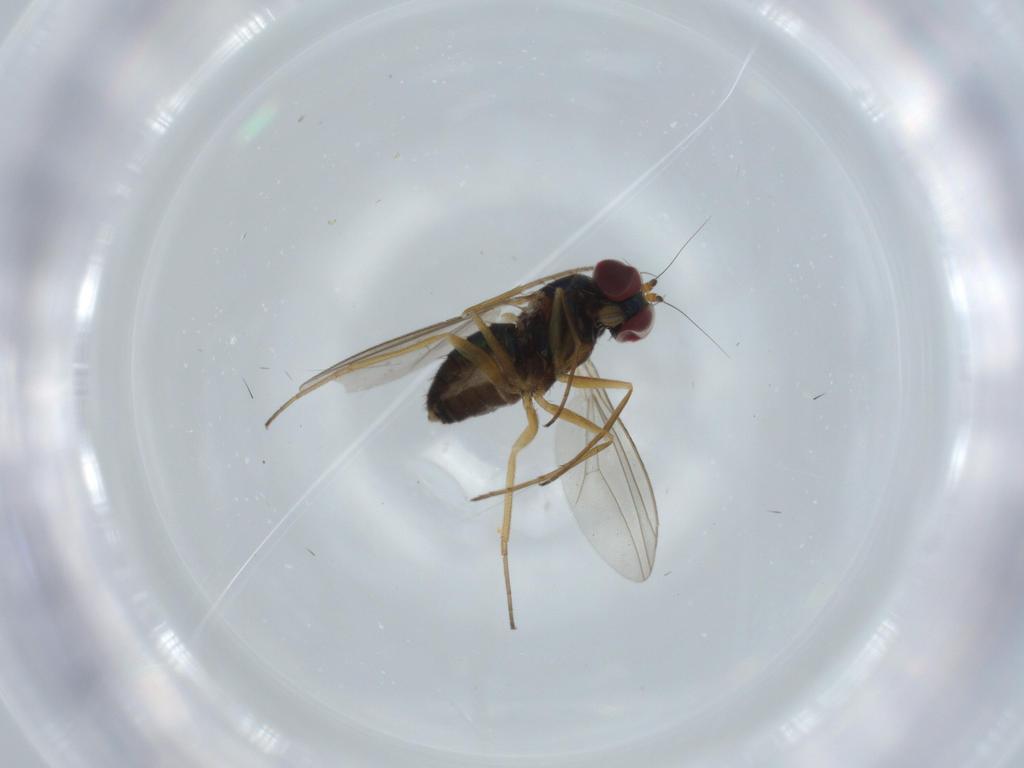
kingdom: Animalia
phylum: Arthropoda
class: Insecta
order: Diptera
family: Dolichopodidae
